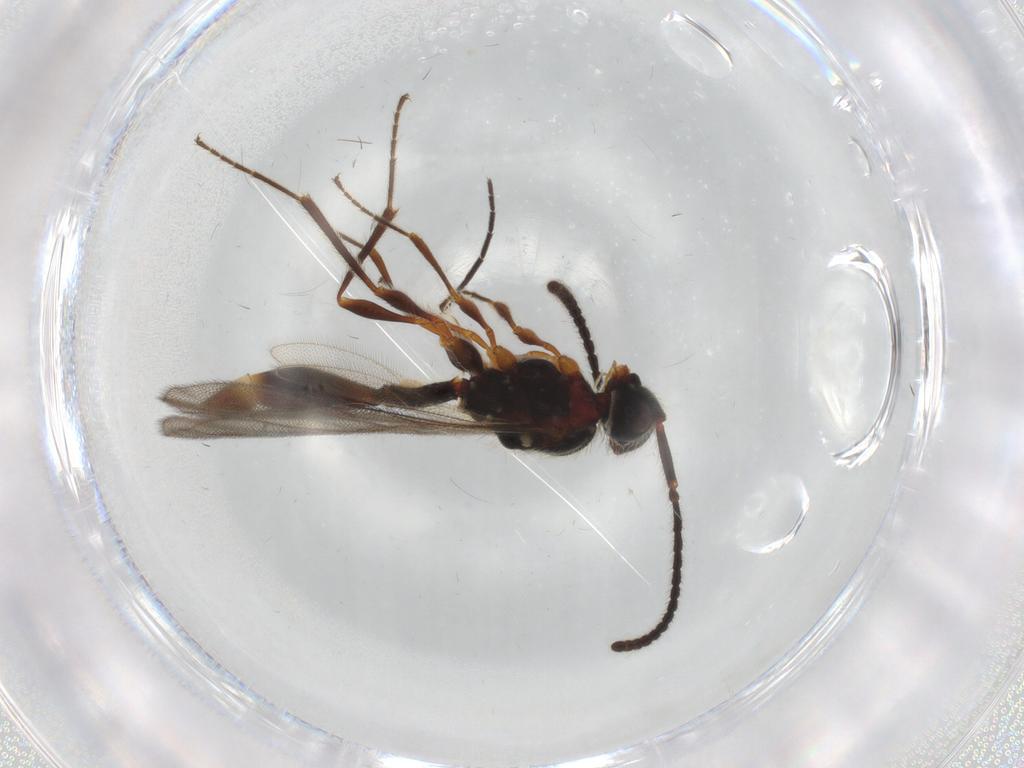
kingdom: Animalia
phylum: Arthropoda
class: Insecta
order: Hymenoptera
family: Diapriidae
